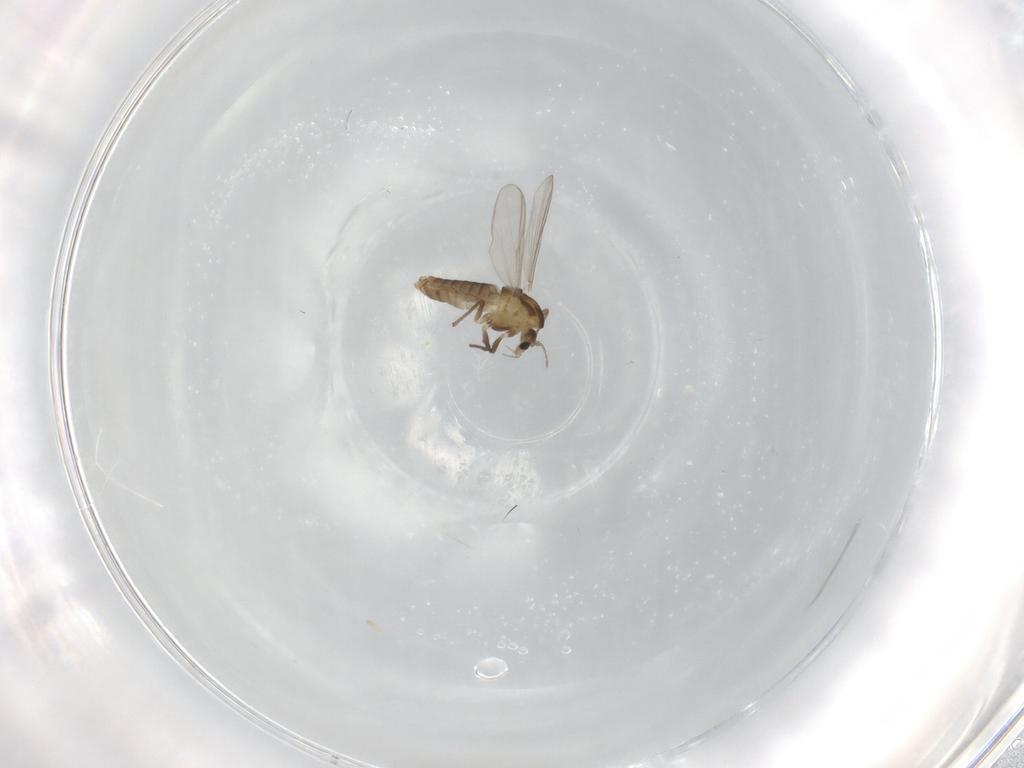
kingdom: Animalia
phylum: Arthropoda
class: Insecta
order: Diptera
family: Chironomidae
